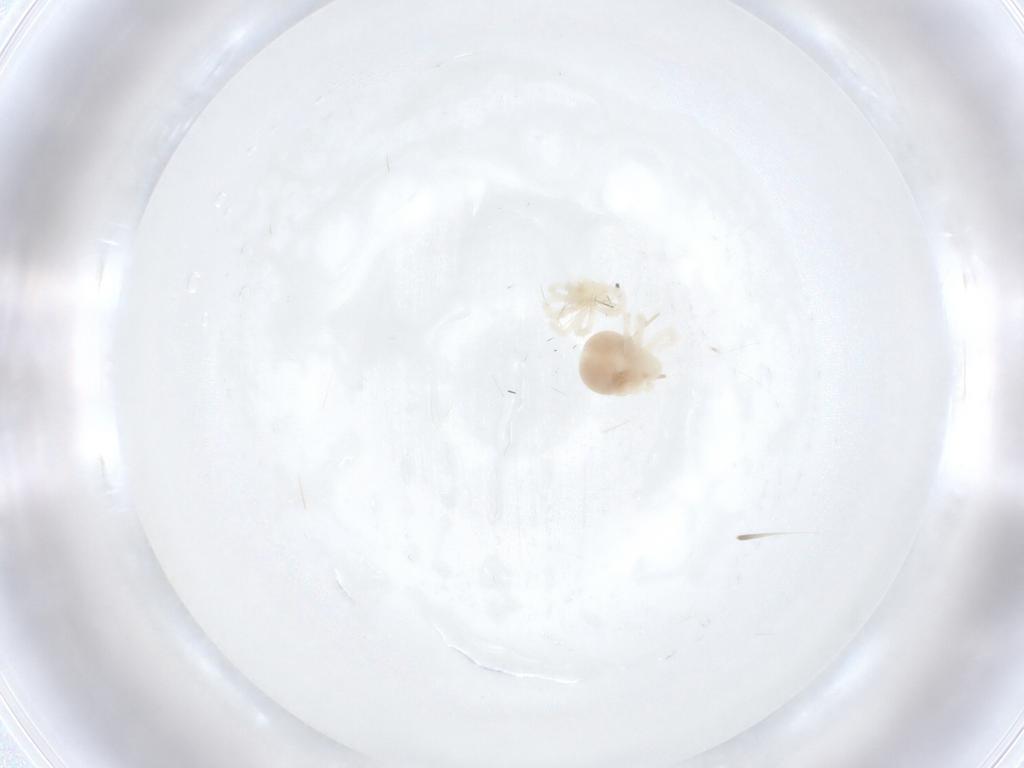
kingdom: Animalia
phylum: Arthropoda
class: Arachnida
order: Trombidiformes
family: Anystidae
